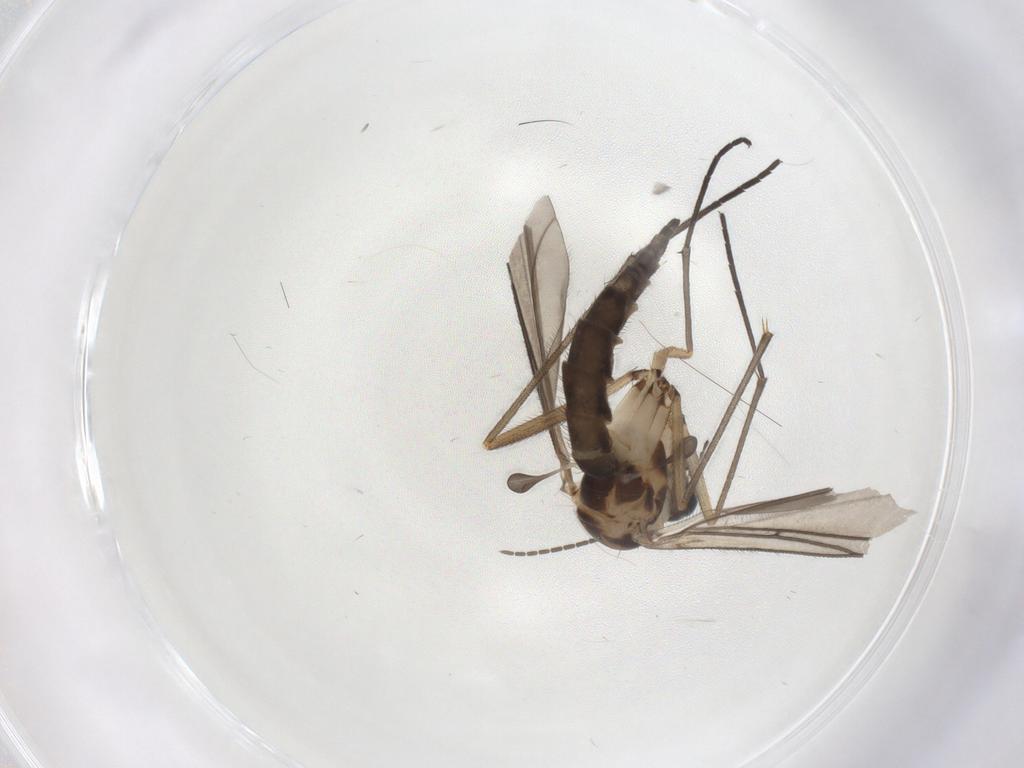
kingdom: Animalia
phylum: Arthropoda
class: Insecta
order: Diptera
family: Sciaridae
